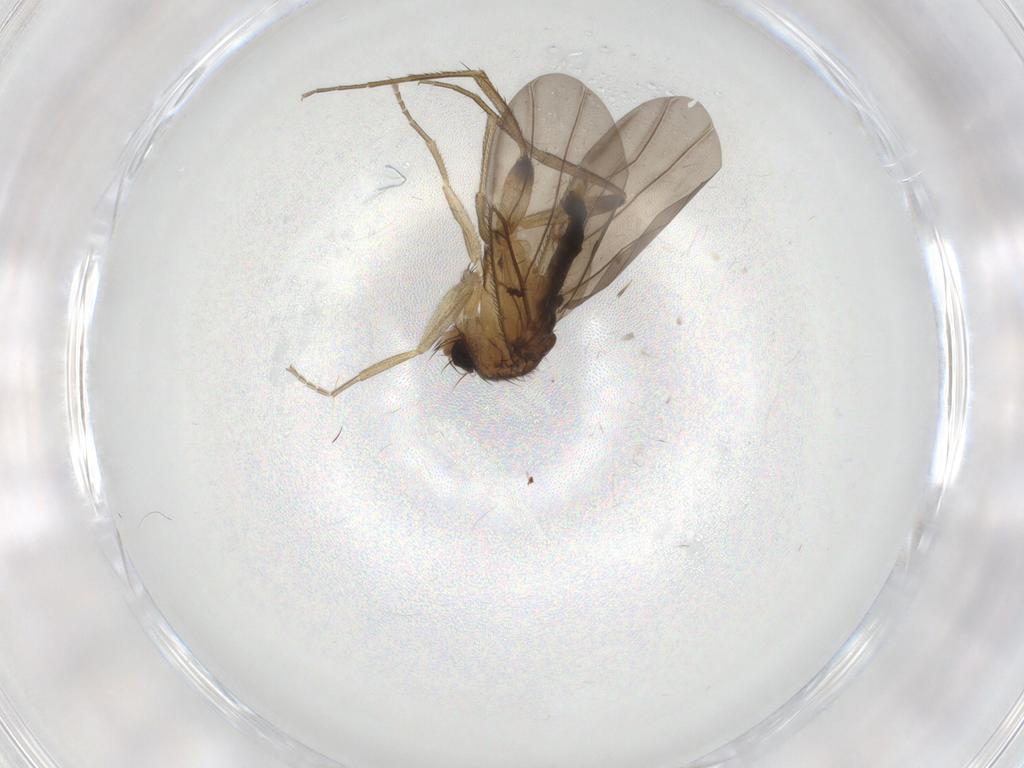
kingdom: Animalia
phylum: Arthropoda
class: Insecta
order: Diptera
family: Phoridae
